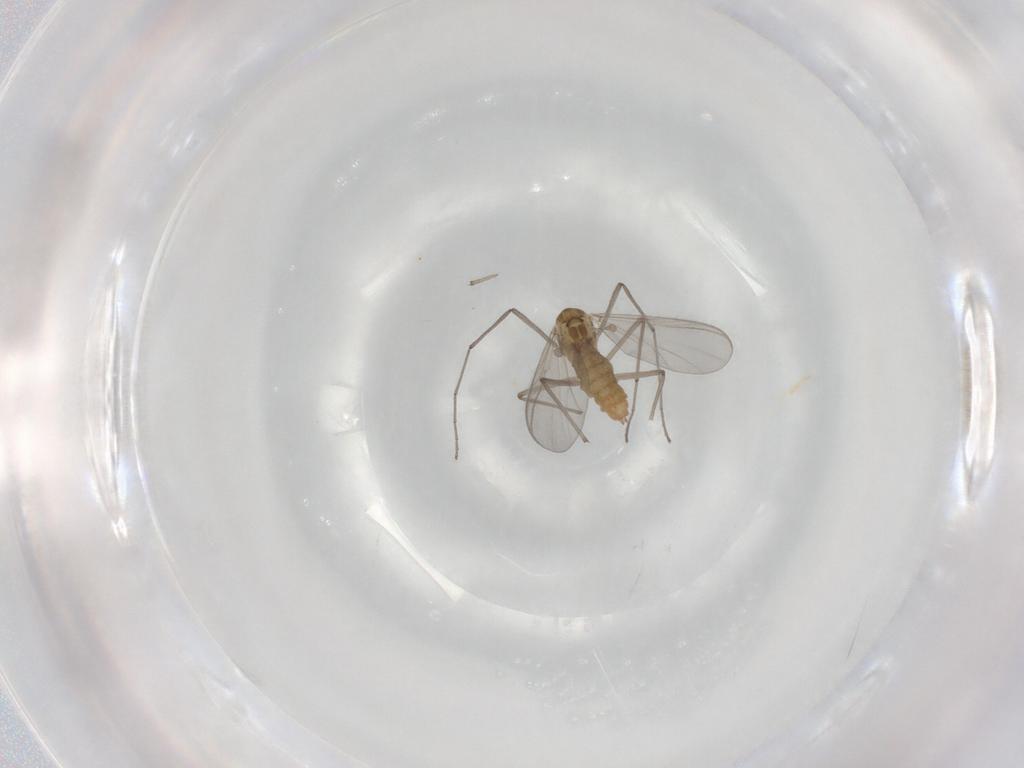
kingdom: Animalia
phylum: Arthropoda
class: Insecta
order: Diptera
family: Chironomidae
